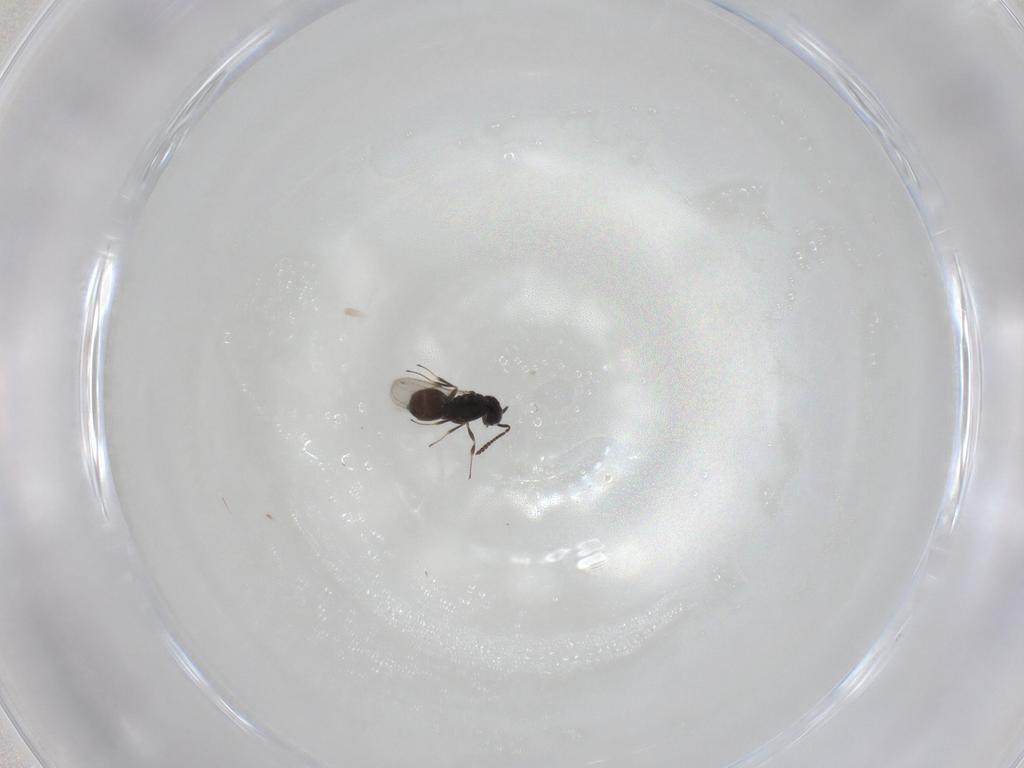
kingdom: Animalia
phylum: Arthropoda
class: Insecta
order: Hymenoptera
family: Scelionidae
